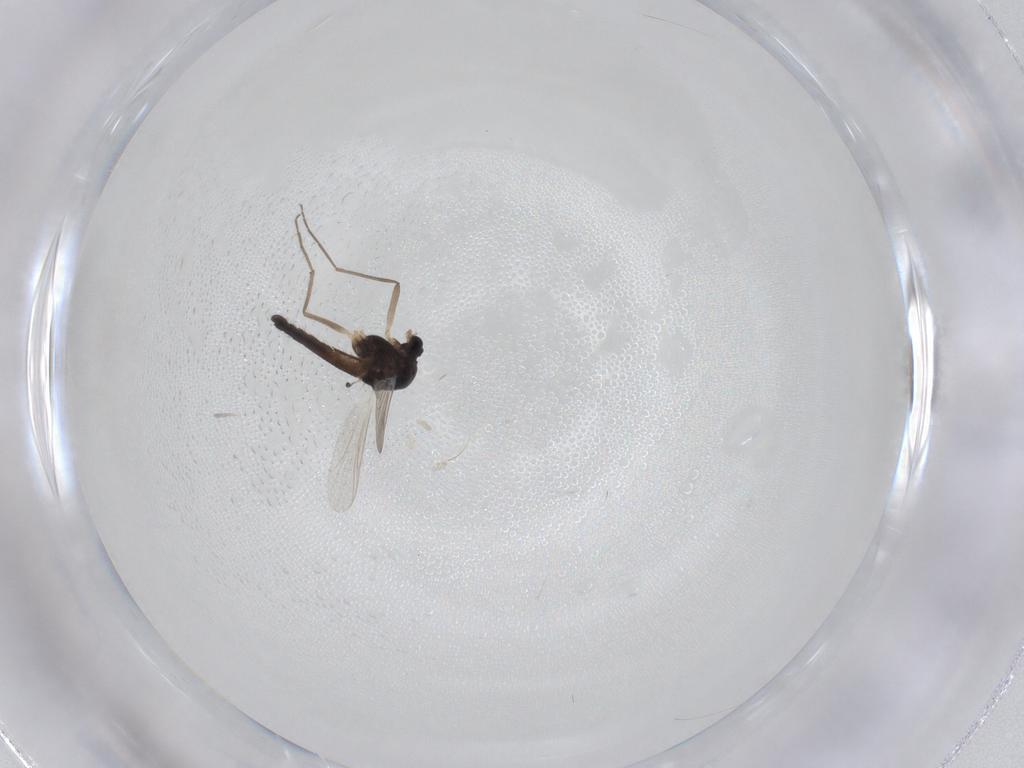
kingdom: Animalia
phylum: Arthropoda
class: Insecta
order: Diptera
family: Chironomidae
